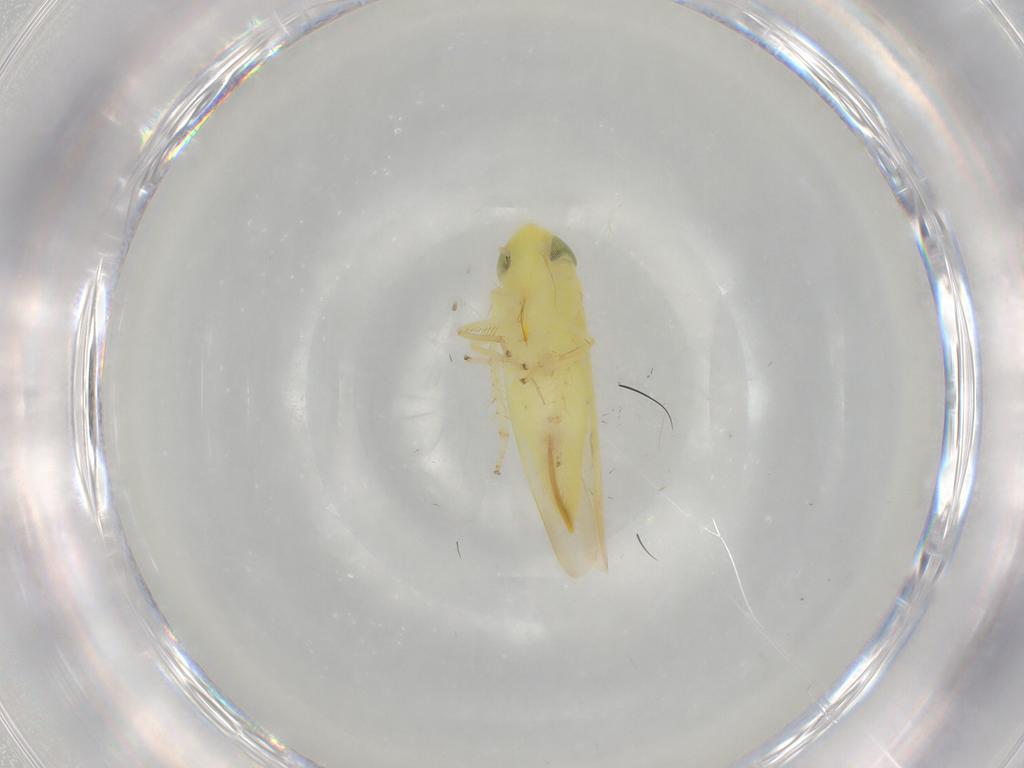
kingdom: Animalia
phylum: Arthropoda
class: Insecta
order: Hemiptera
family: Cicadellidae
